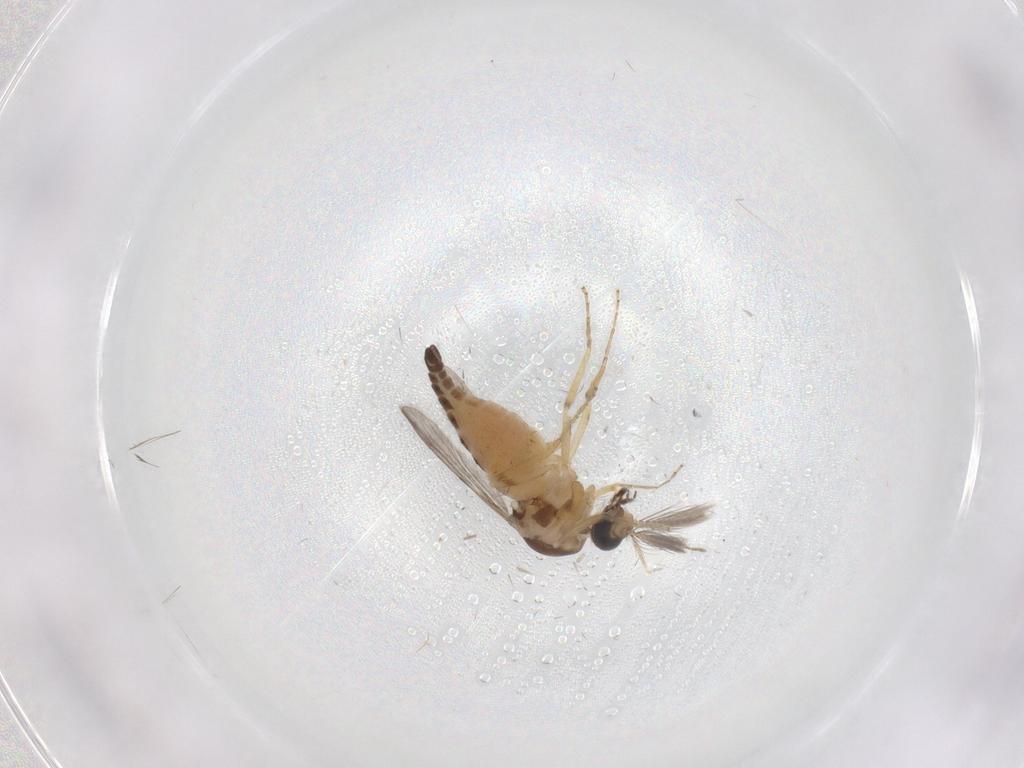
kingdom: Animalia
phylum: Arthropoda
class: Insecta
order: Diptera
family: Ceratopogonidae
